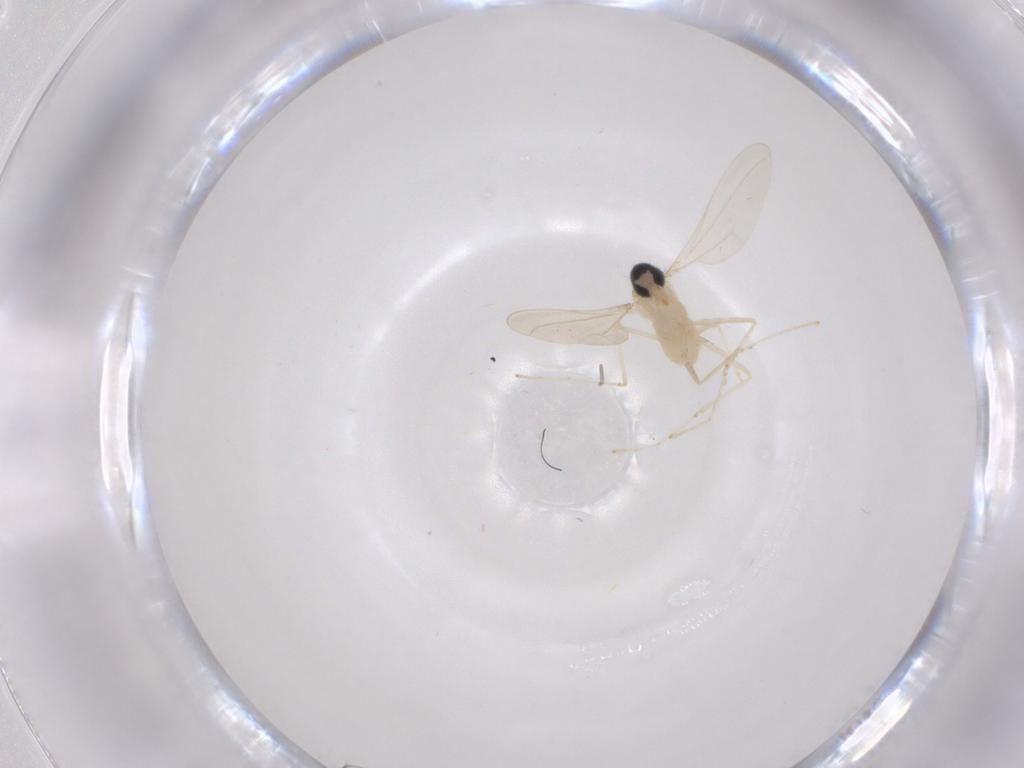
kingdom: Animalia
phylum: Arthropoda
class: Insecta
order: Diptera
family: Cecidomyiidae
